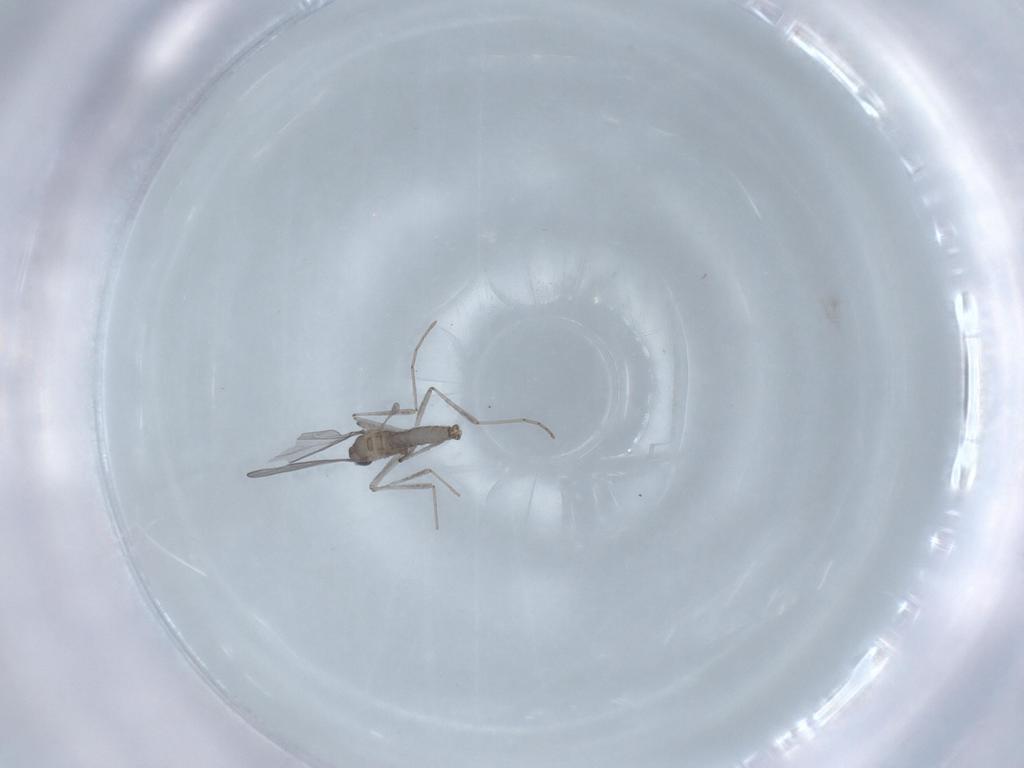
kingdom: Animalia
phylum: Arthropoda
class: Insecta
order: Diptera
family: Cecidomyiidae
